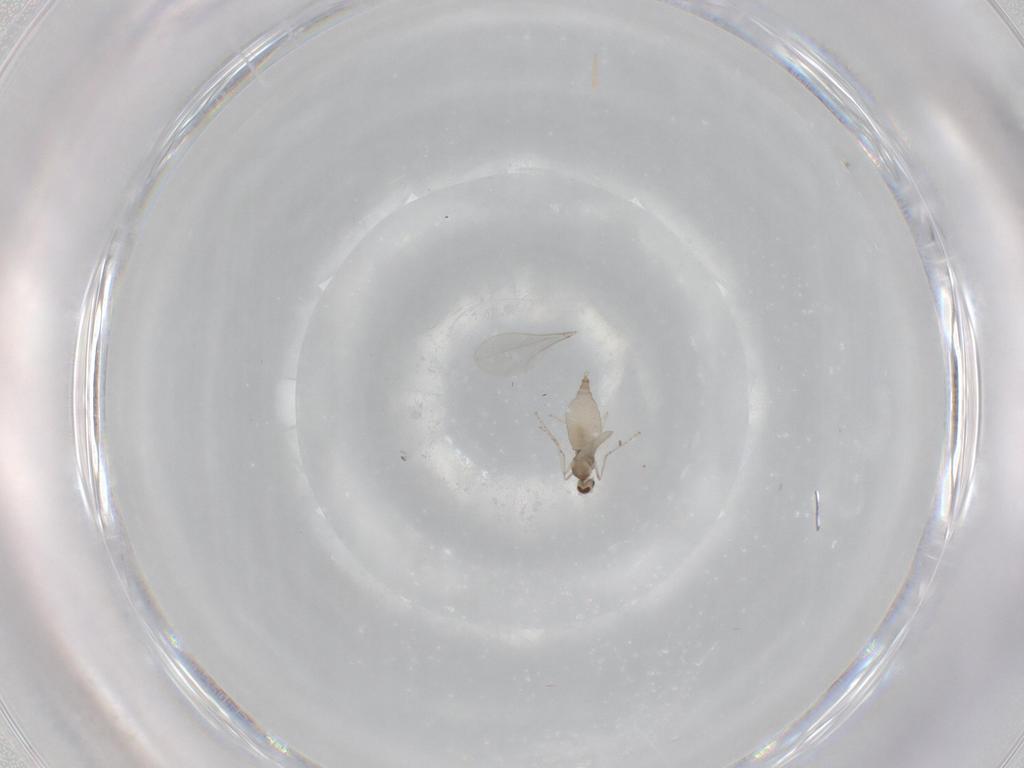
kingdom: Animalia
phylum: Arthropoda
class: Insecta
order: Diptera
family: Cecidomyiidae
